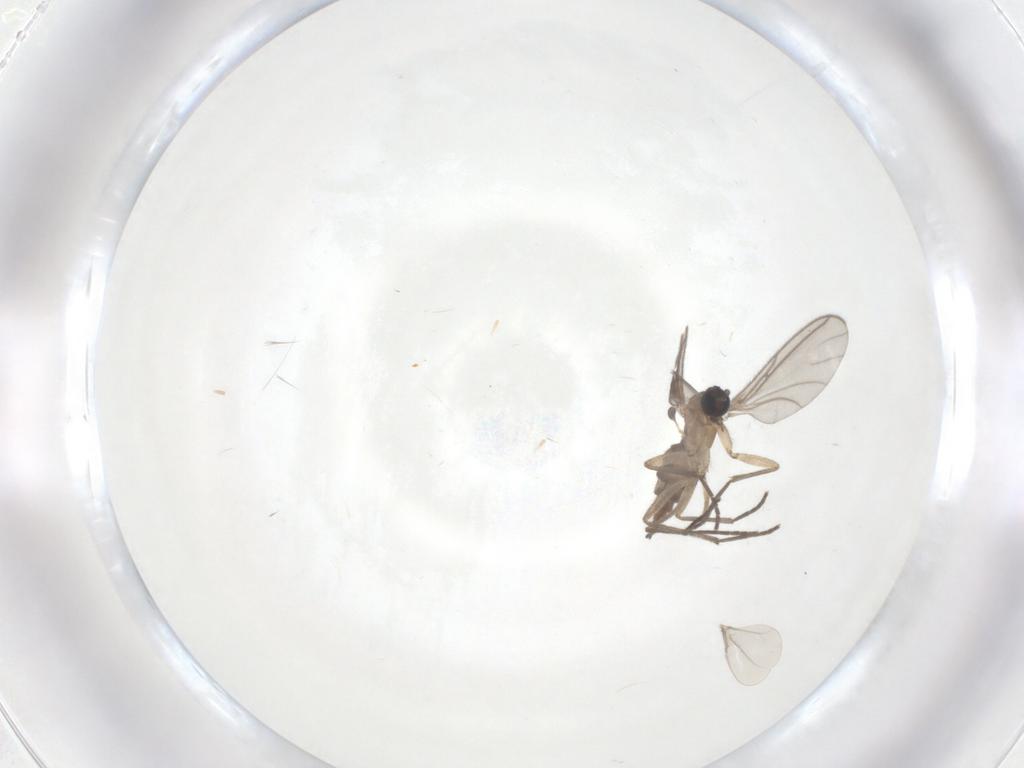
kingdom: Animalia
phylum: Arthropoda
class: Insecta
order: Diptera
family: Sciaridae
